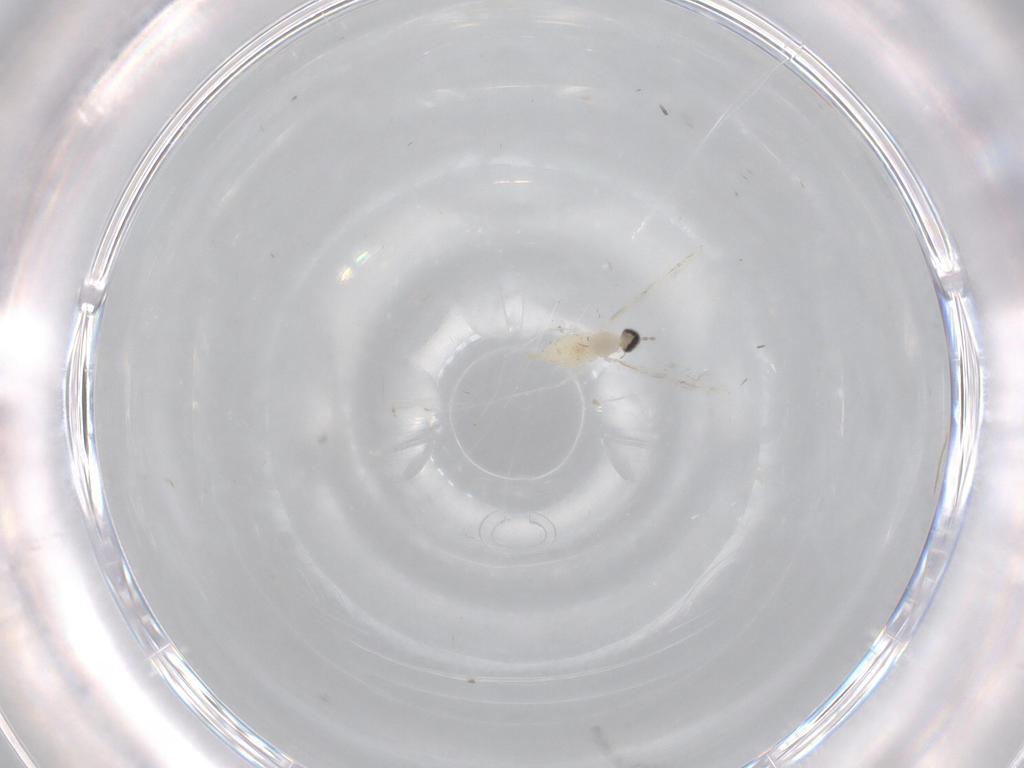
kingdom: Animalia
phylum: Arthropoda
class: Insecta
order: Diptera
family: Cecidomyiidae
